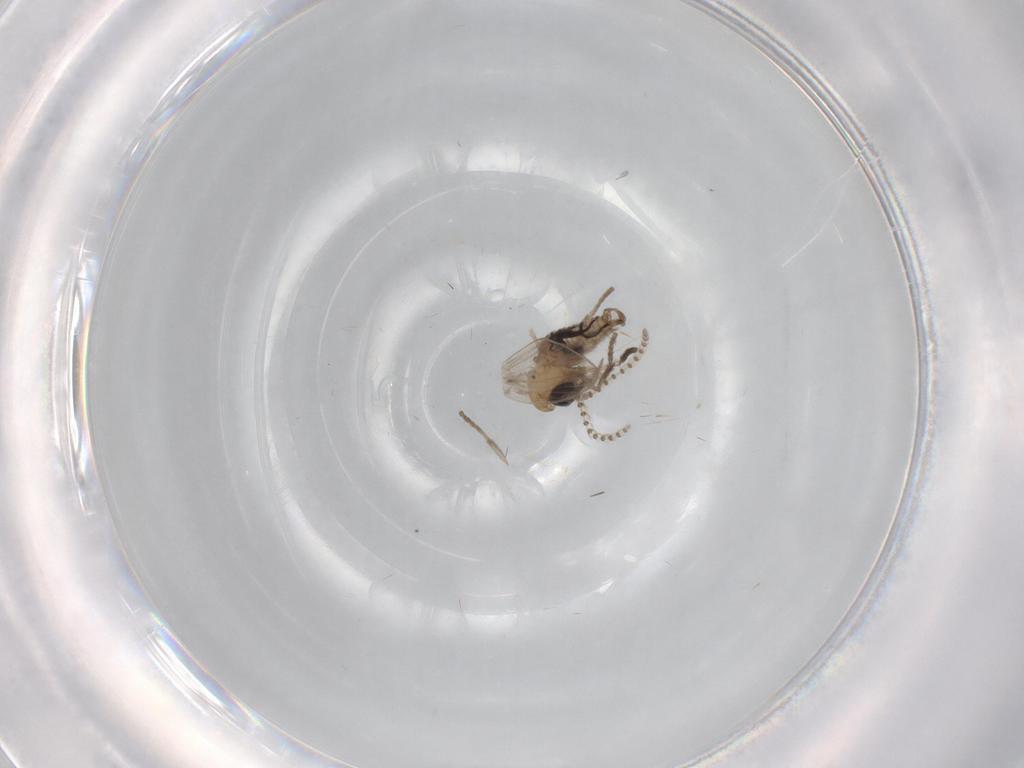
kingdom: Animalia
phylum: Arthropoda
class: Insecta
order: Diptera
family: Psychodidae
